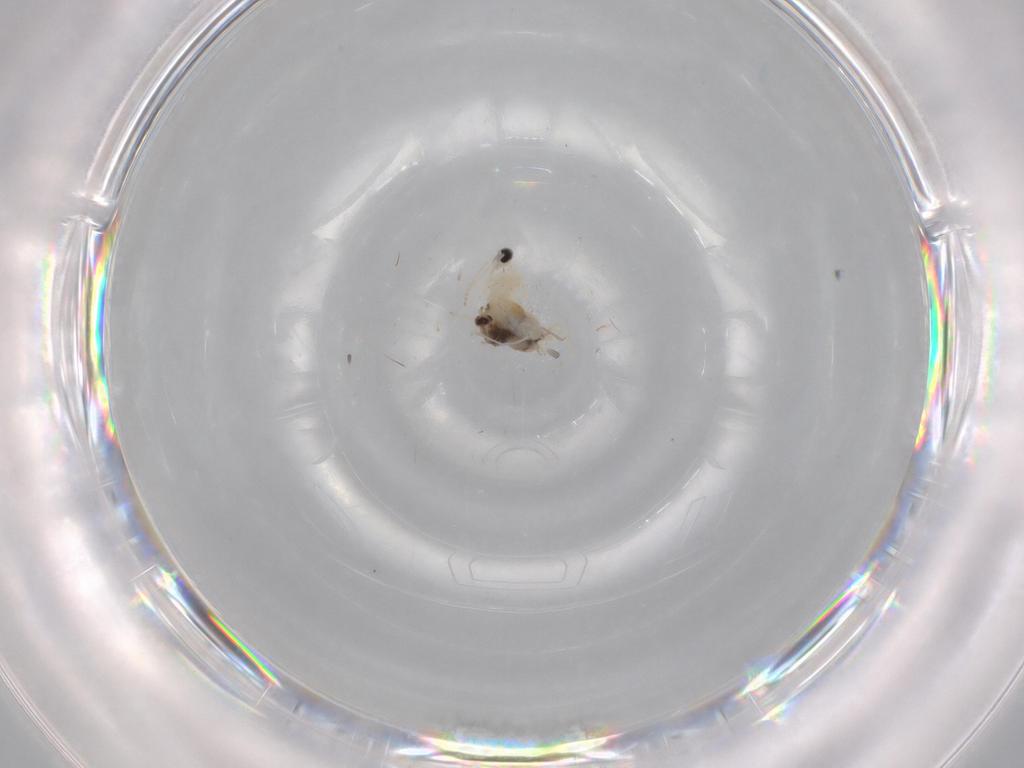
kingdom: Animalia
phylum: Arthropoda
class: Insecta
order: Diptera
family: Cecidomyiidae
